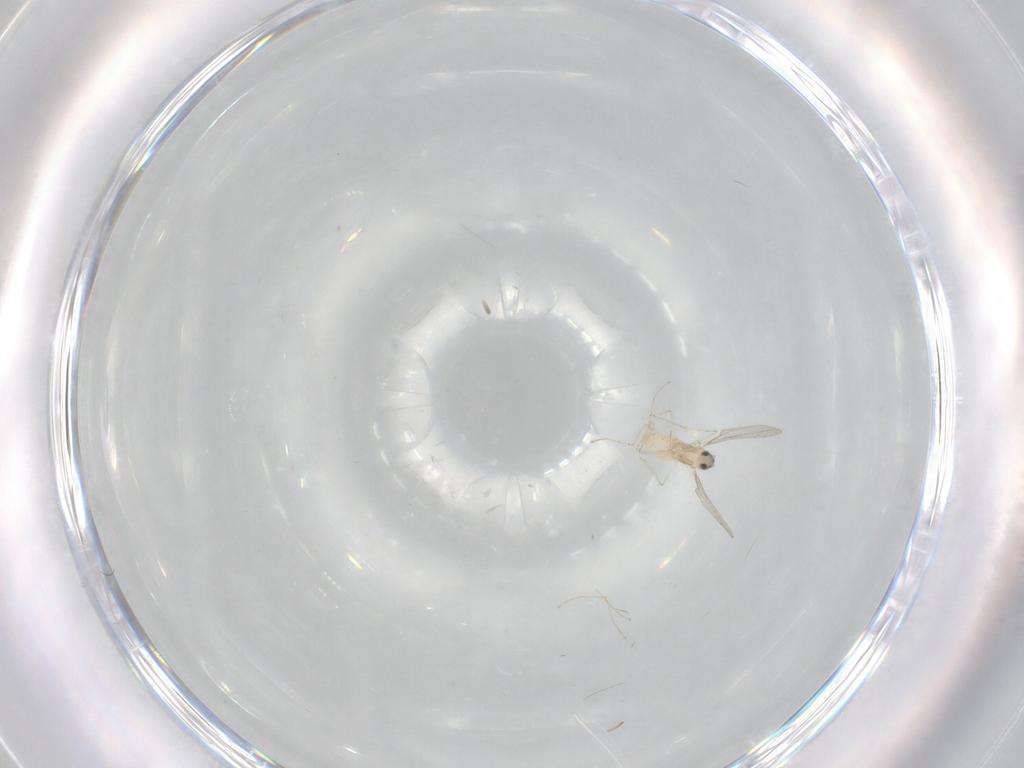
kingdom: Animalia
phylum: Arthropoda
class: Insecta
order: Diptera
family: Cecidomyiidae
